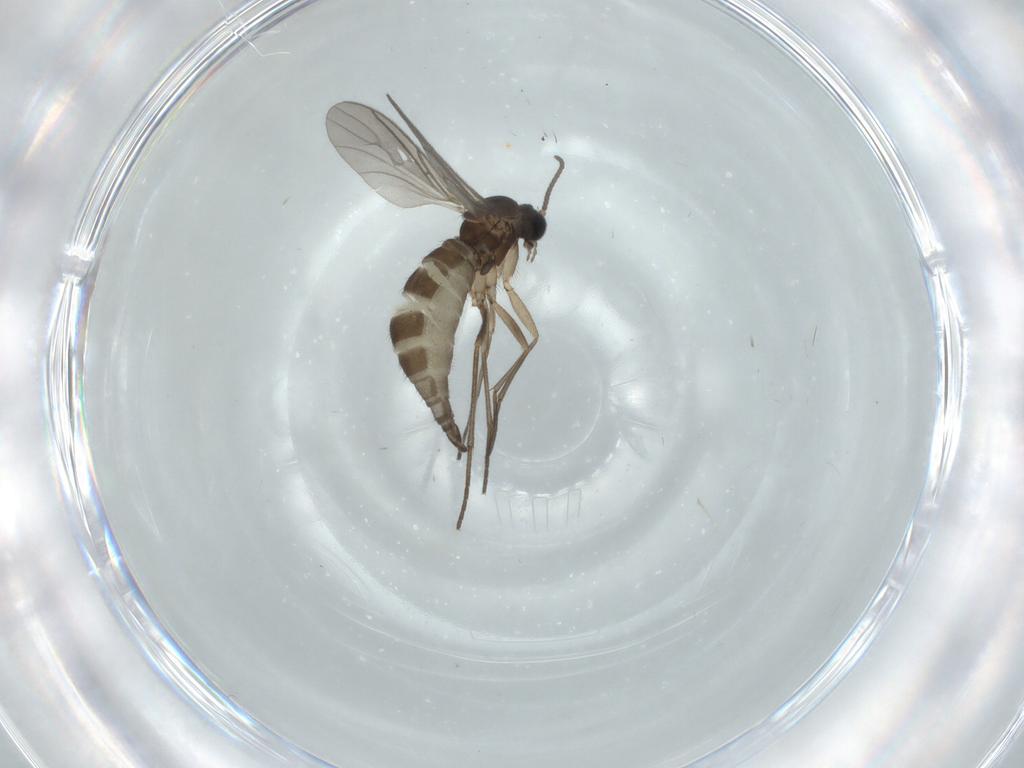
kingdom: Animalia
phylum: Arthropoda
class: Insecta
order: Diptera
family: Sciaridae
